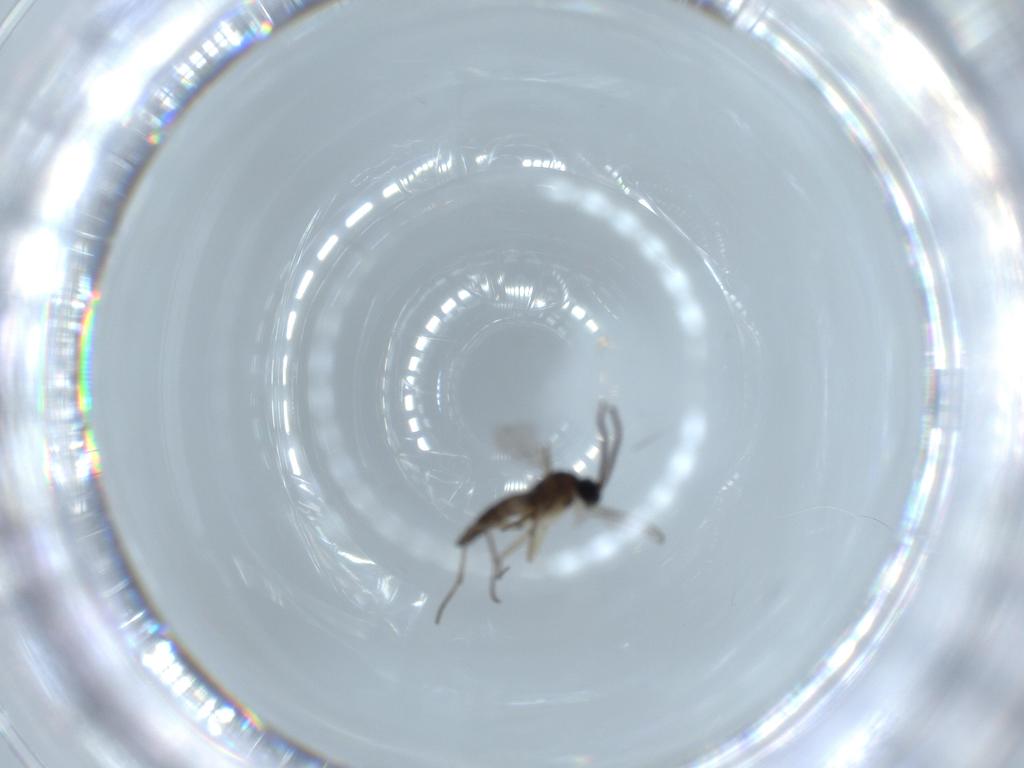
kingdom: Animalia
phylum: Arthropoda
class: Insecta
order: Diptera
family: Sciaridae
